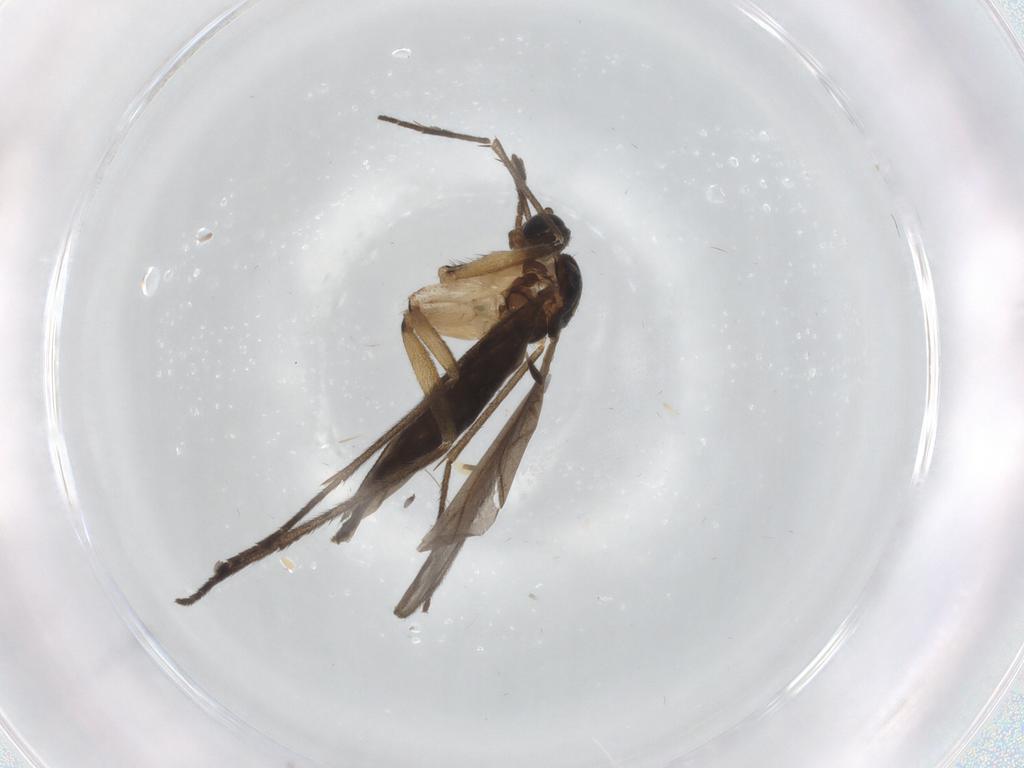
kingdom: Animalia
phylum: Arthropoda
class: Insecta
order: Diptera
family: Sciaridae
